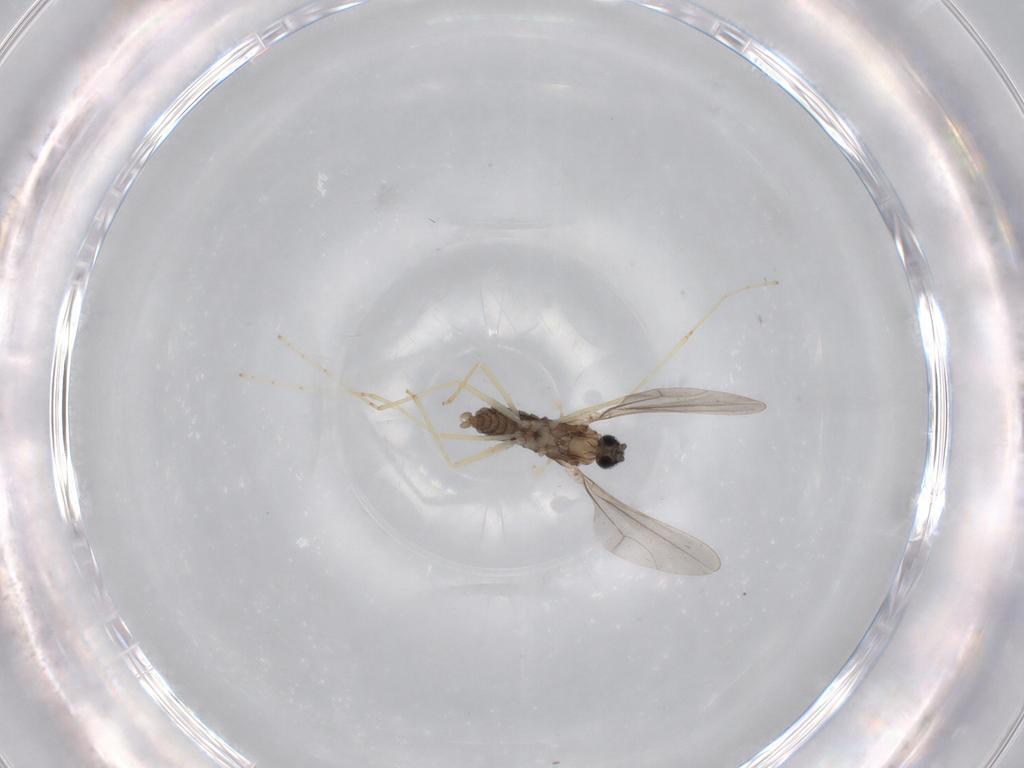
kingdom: Animalia
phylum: Arthropoda
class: Insecta
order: Diptera
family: Cecidomyiidae
